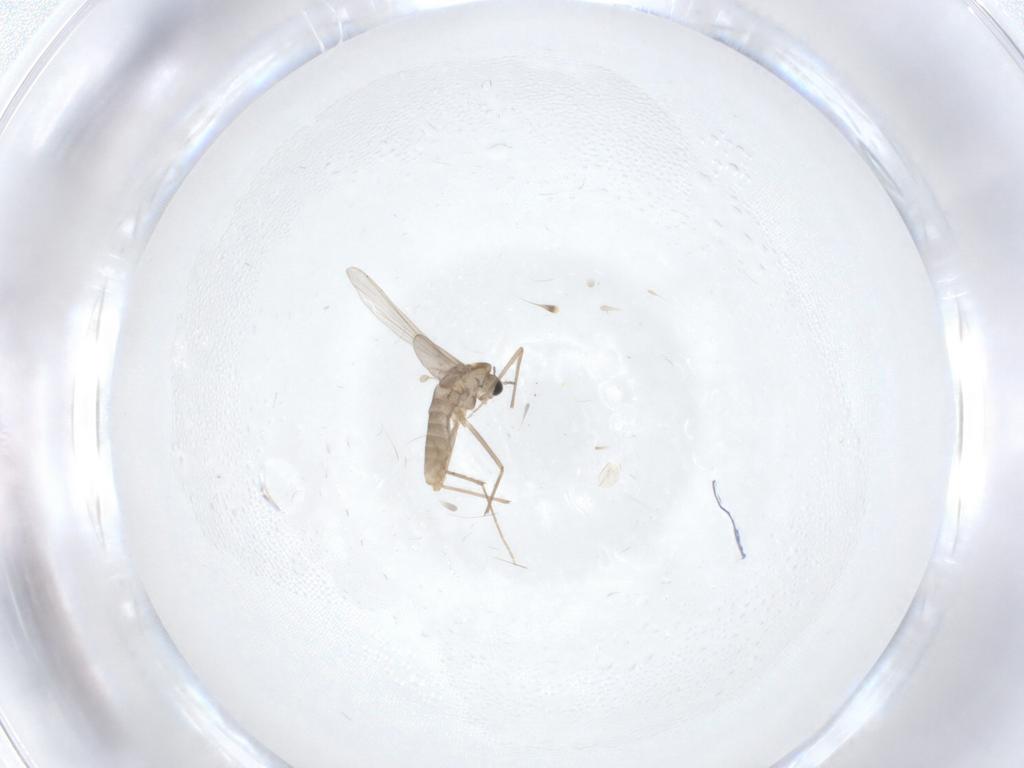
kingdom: Animalia
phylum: Arthropoda
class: Insecta
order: Diptera
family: Chironomidae
